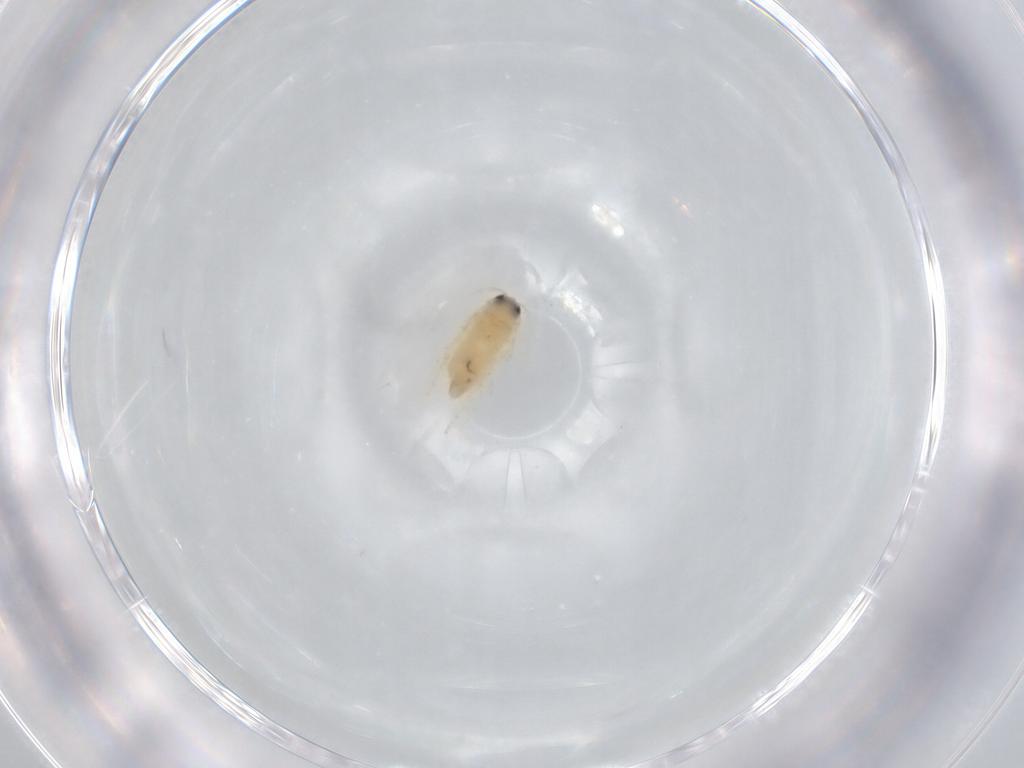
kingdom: Animalia
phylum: Arthropoda
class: Insecta
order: Lepidoptera
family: Nepticulidae
